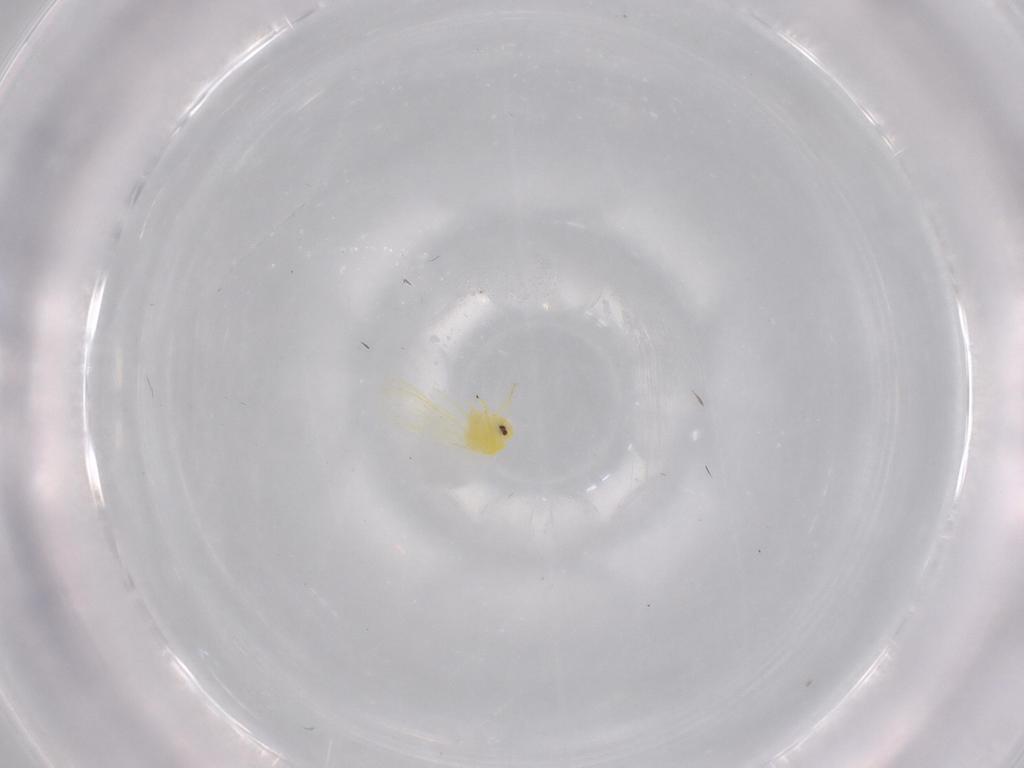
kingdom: Animalia
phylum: Arthropoda
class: Insecta
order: Hemiptera
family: Aleyrodidae
